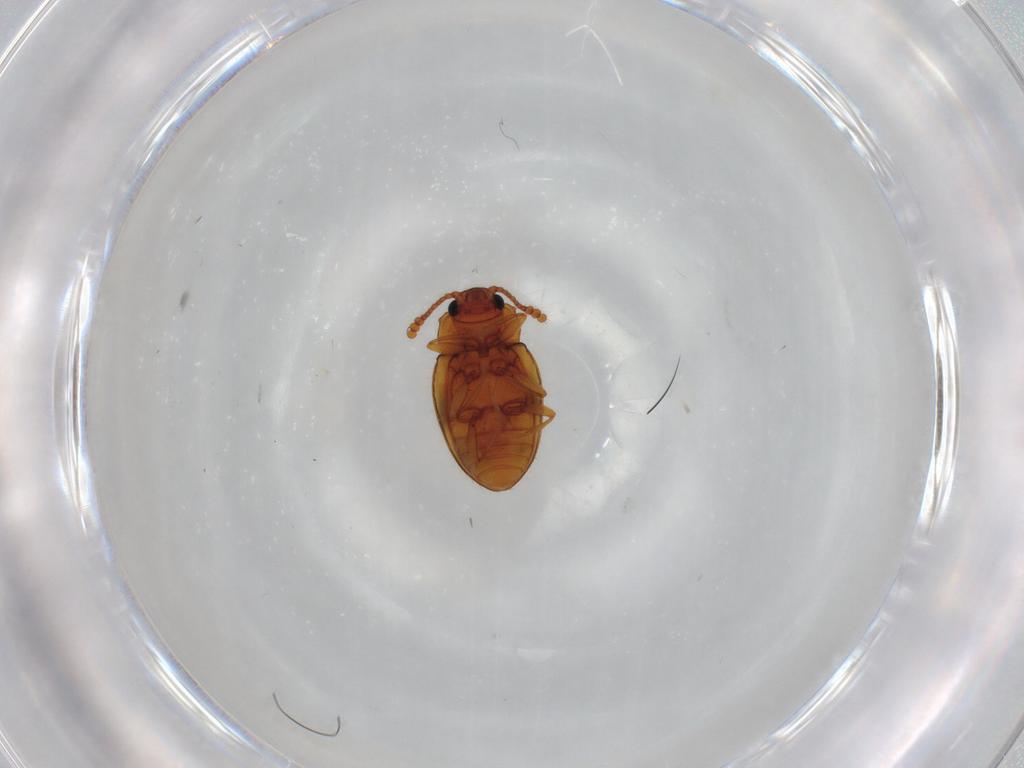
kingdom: Animalia
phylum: Arthropoda
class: Insecta
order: Coleoptera
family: Erotylidae
